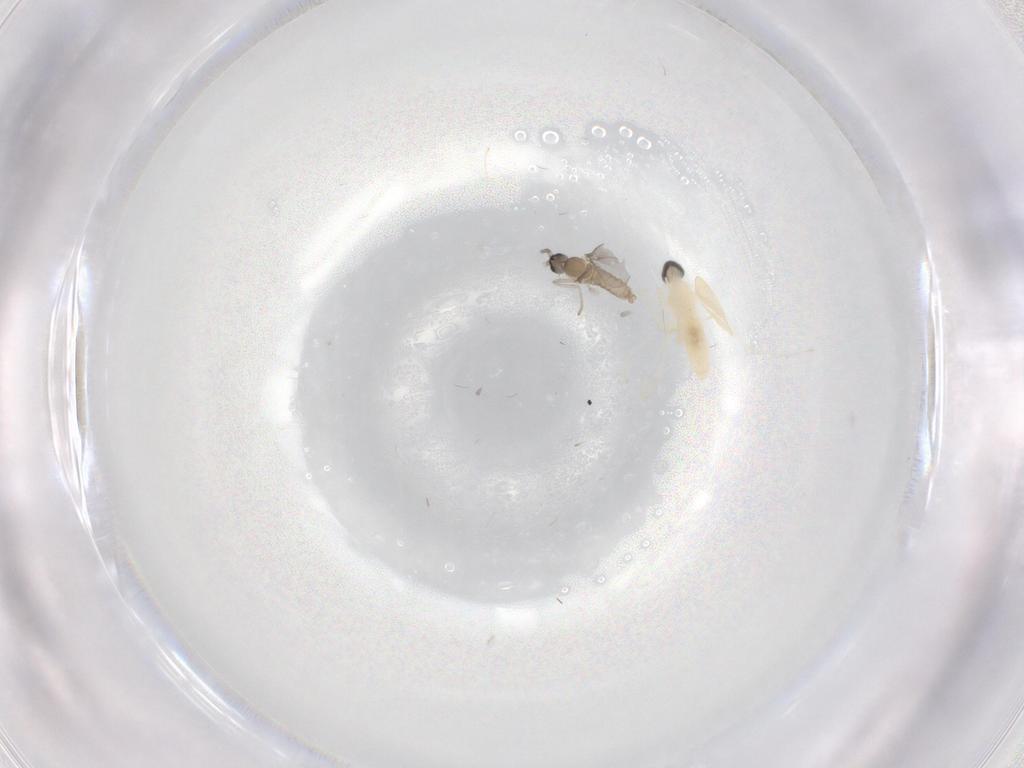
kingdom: Animalia
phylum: Arthropoda
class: Insecta
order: Diptera
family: Cecidomyiidae
